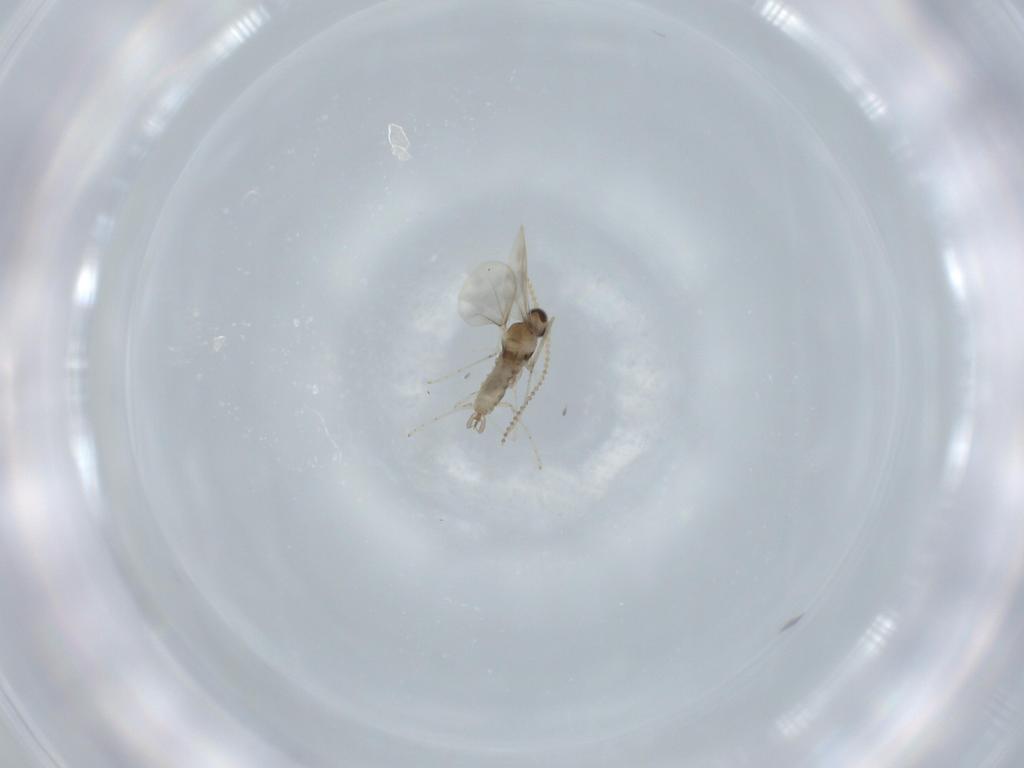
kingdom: Animalia
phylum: Arthropoda
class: Insecta
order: Diptera
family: Cecidomyiidae
